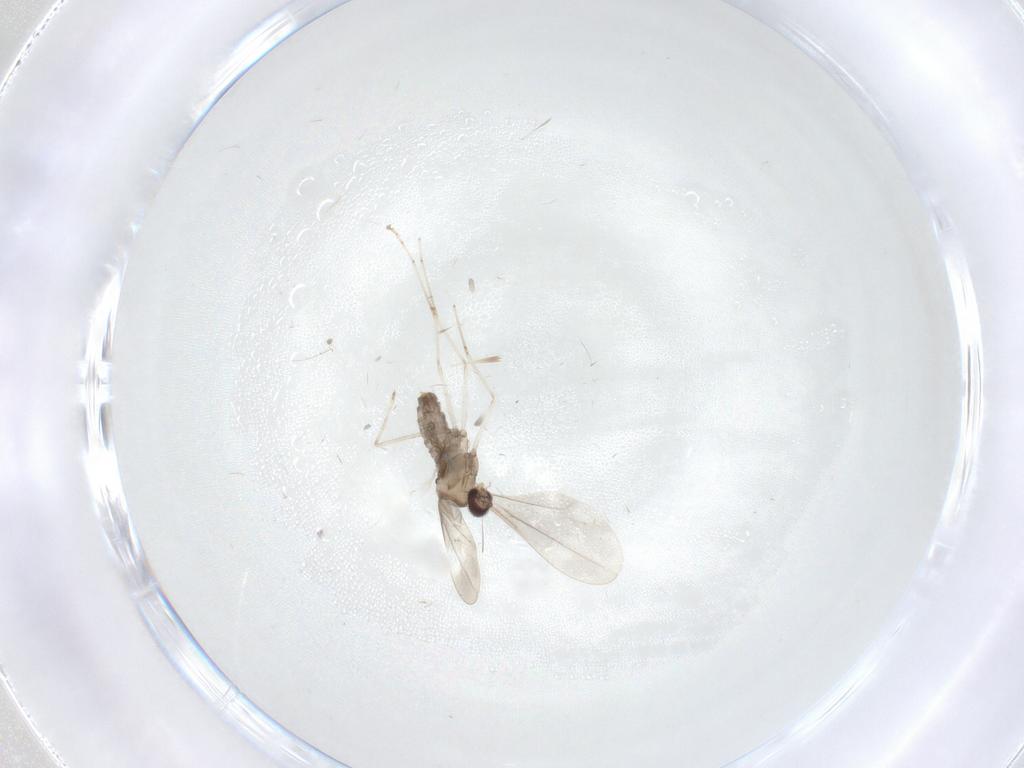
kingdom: Animalia
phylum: Arthropoda
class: Insecta
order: Diptera
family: Cecidomyiidae
